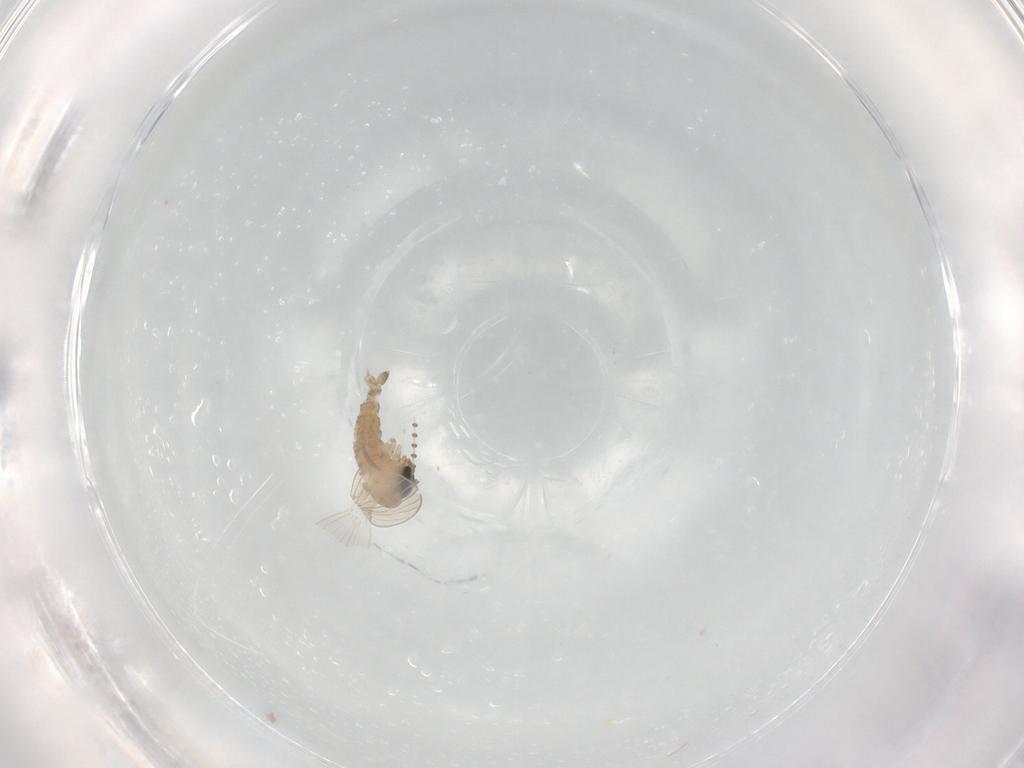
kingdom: Animalia
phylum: Arthropoda
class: Insecta
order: Diptera
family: Psychodidae
